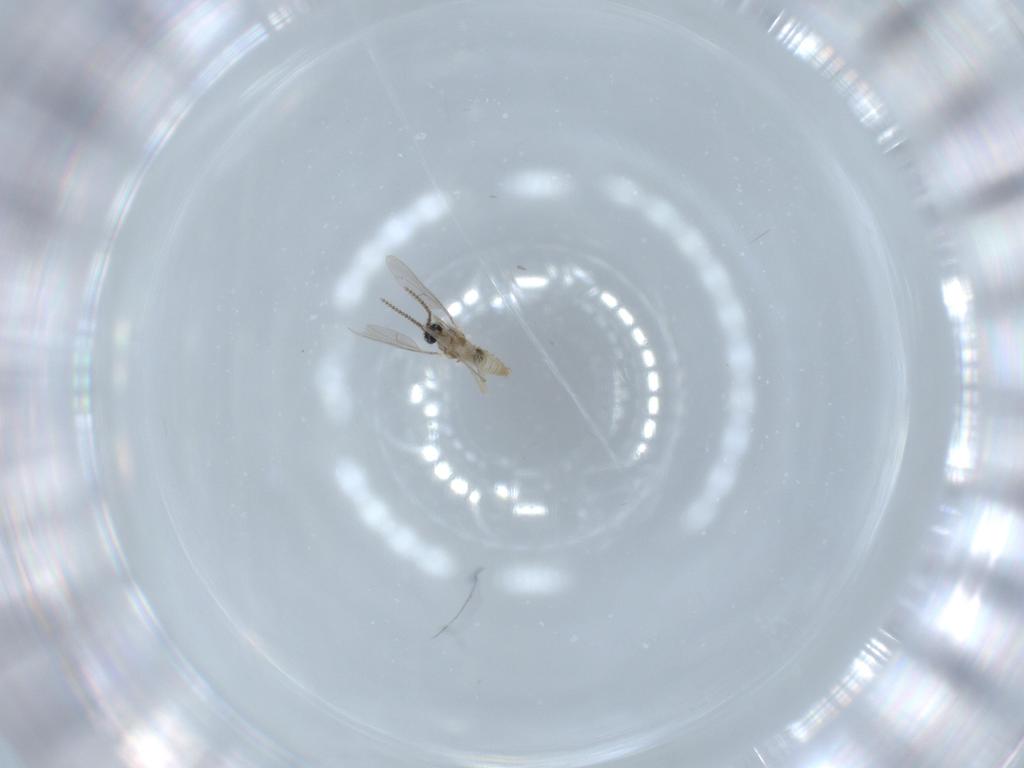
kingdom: Animalia
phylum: Arthropoda
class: Insecta
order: Diptera
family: Cecidomyiidae
